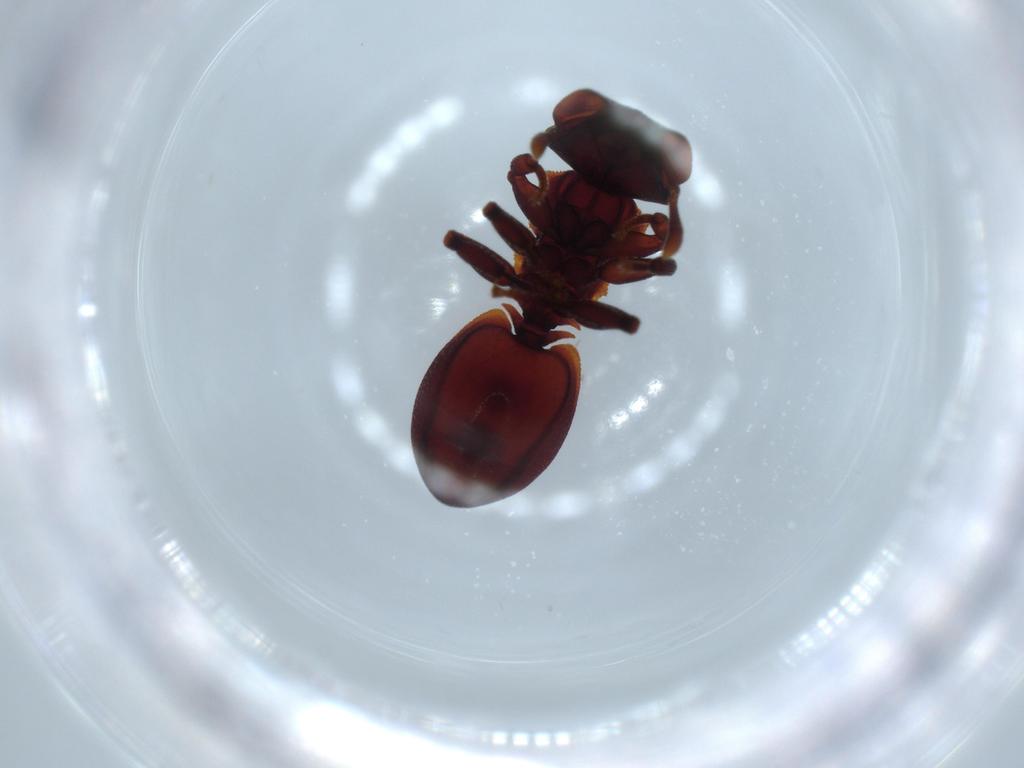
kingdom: Animalia
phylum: Arthropoda
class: Insecta
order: Hymenoptera
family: Formicidae
